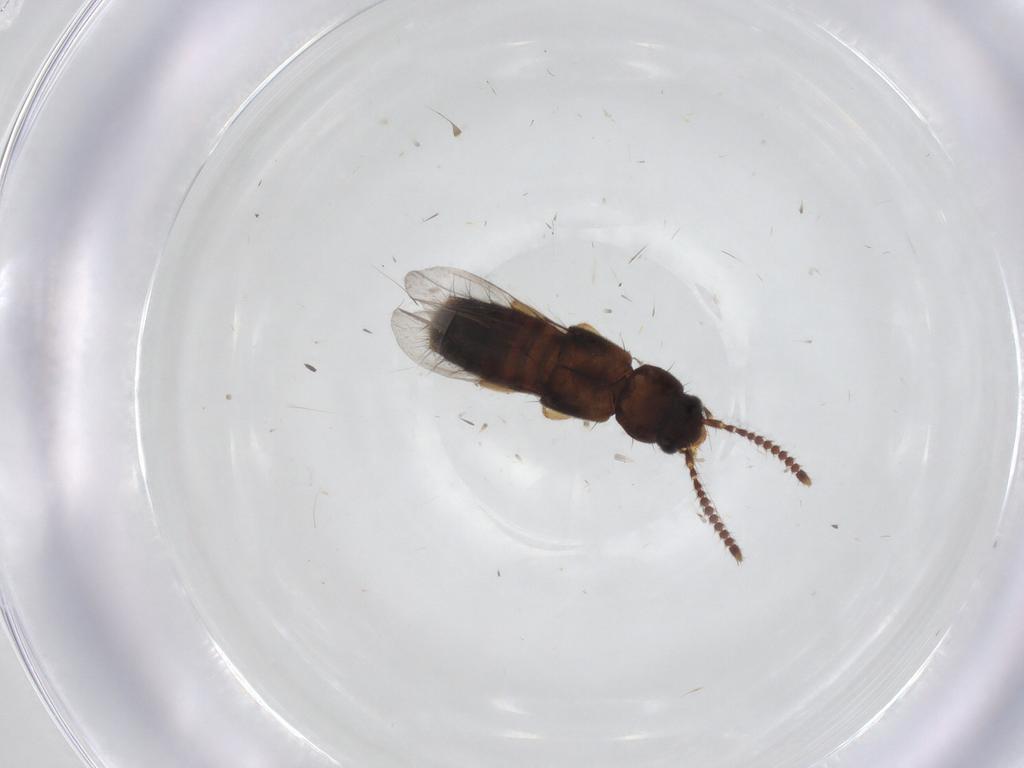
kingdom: Animalia
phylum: Arthropoda
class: Insecta
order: Coleoptera
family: Staphylinidae
